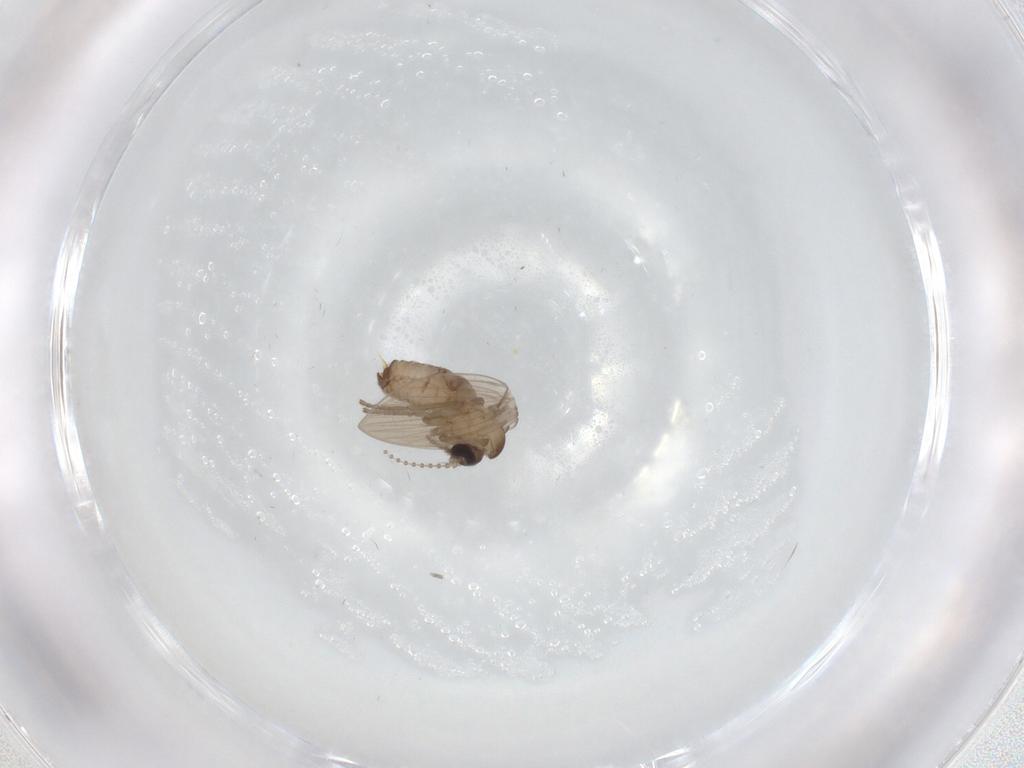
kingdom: Animalia
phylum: Arthropoda
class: Insecta
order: Diptera
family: Psychodidae
